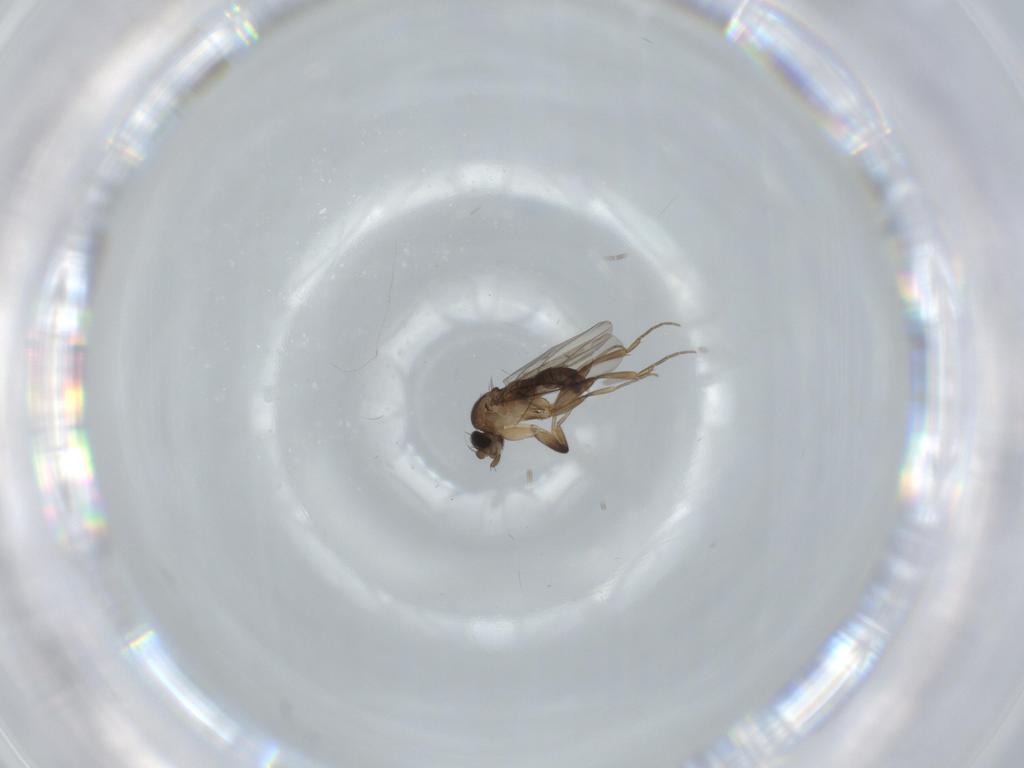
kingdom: Animalia
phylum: Arthropoda
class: Insecta
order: Diptera
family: Phoridae
